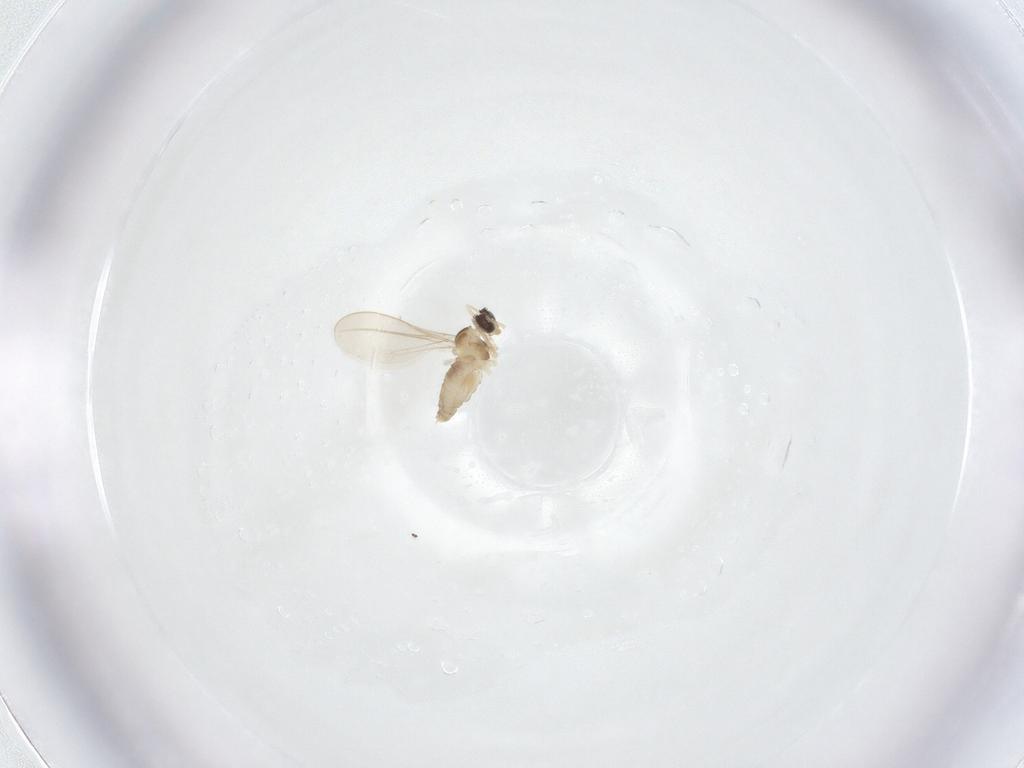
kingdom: Animalia
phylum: Arthropoda
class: Insecta
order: Diptera
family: Cecidomyiidae
